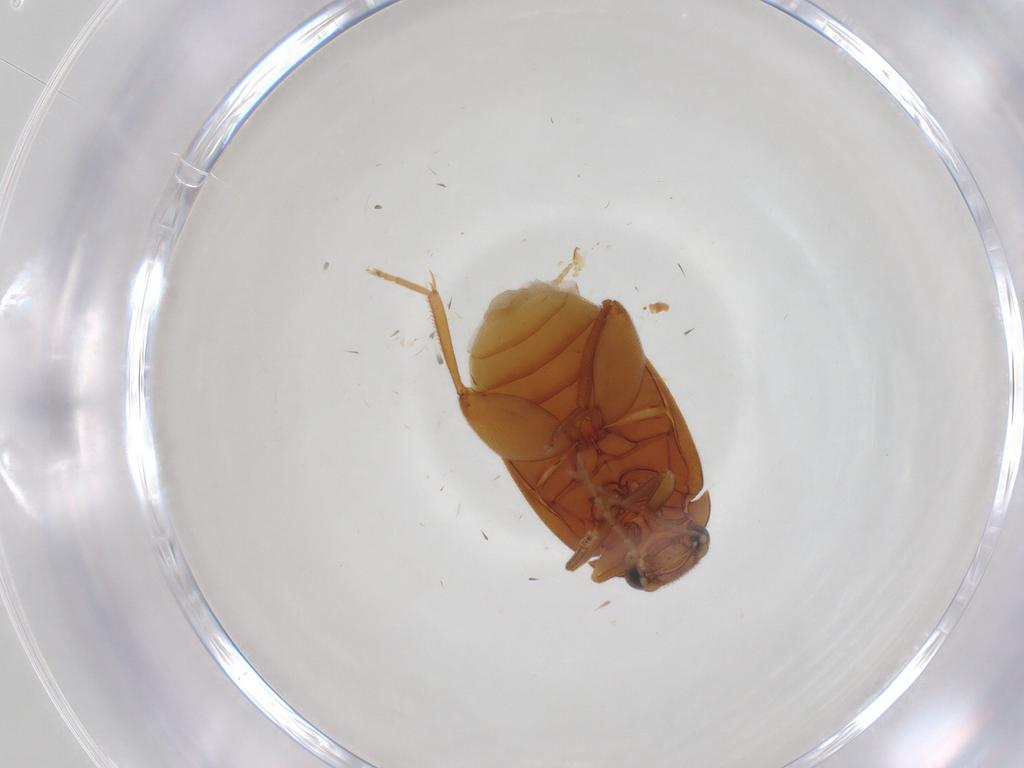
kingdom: Animalia
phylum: Arthropoda
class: Insecta
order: Coleoptera
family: Scirtidae
